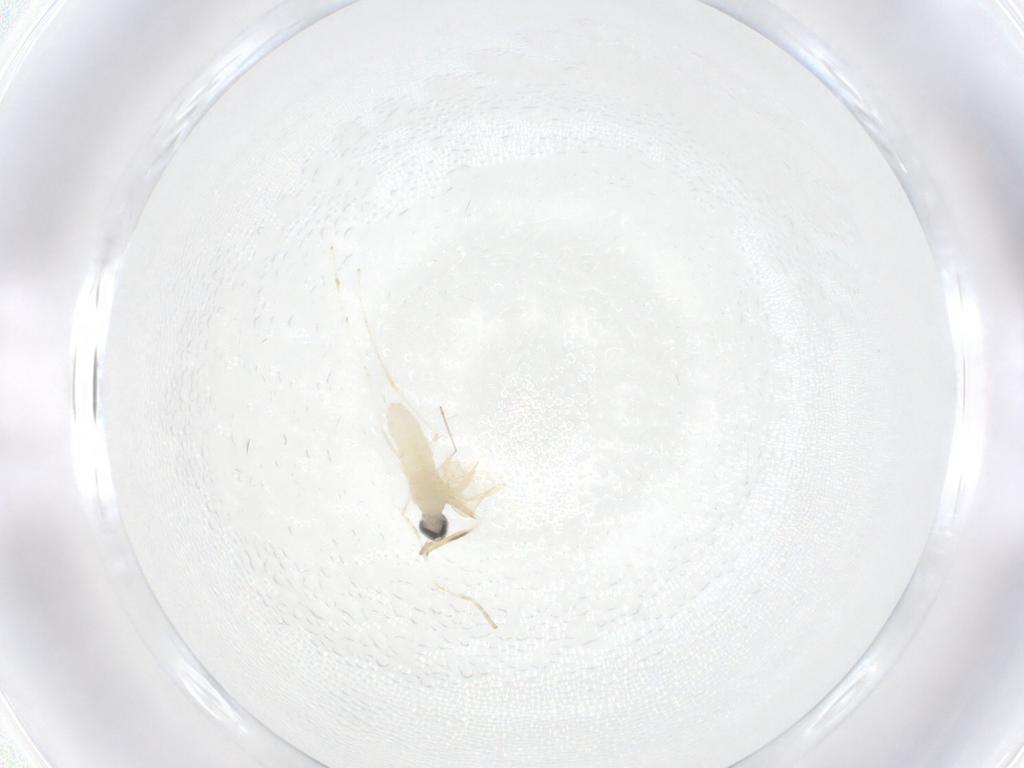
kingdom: Animalia
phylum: Arthropoda
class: Insecta
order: Diptera
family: Cecidomyiidae
